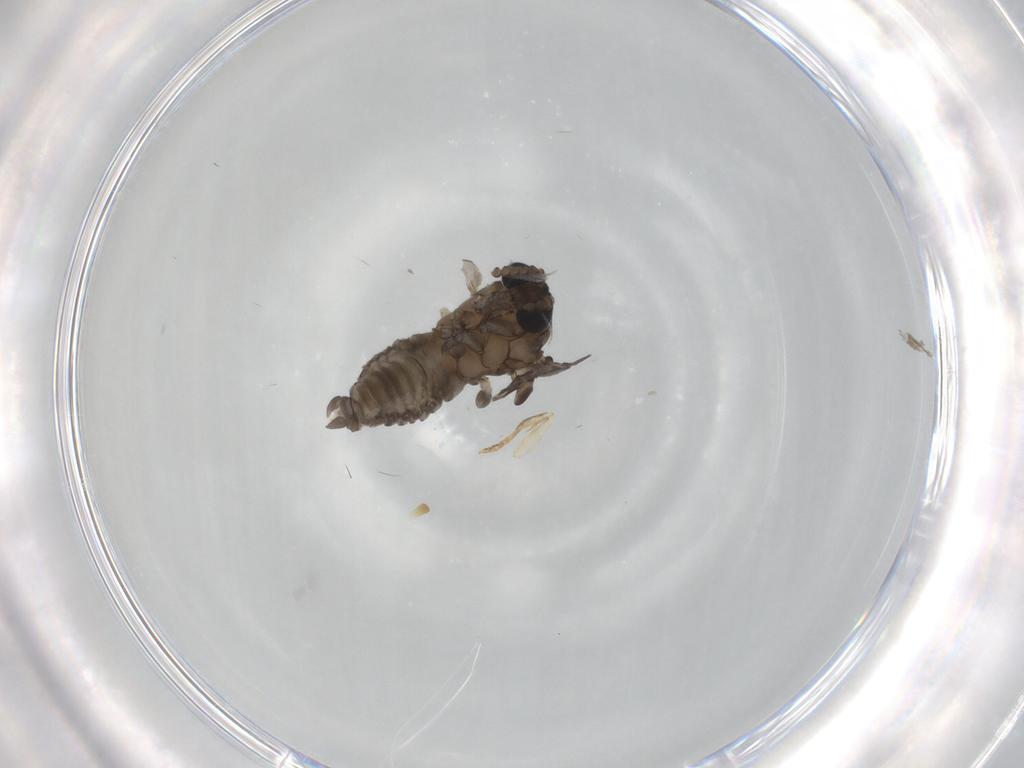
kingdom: Animalia
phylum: Arthropoda
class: Insecta
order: Diptera
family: Psychodidae
